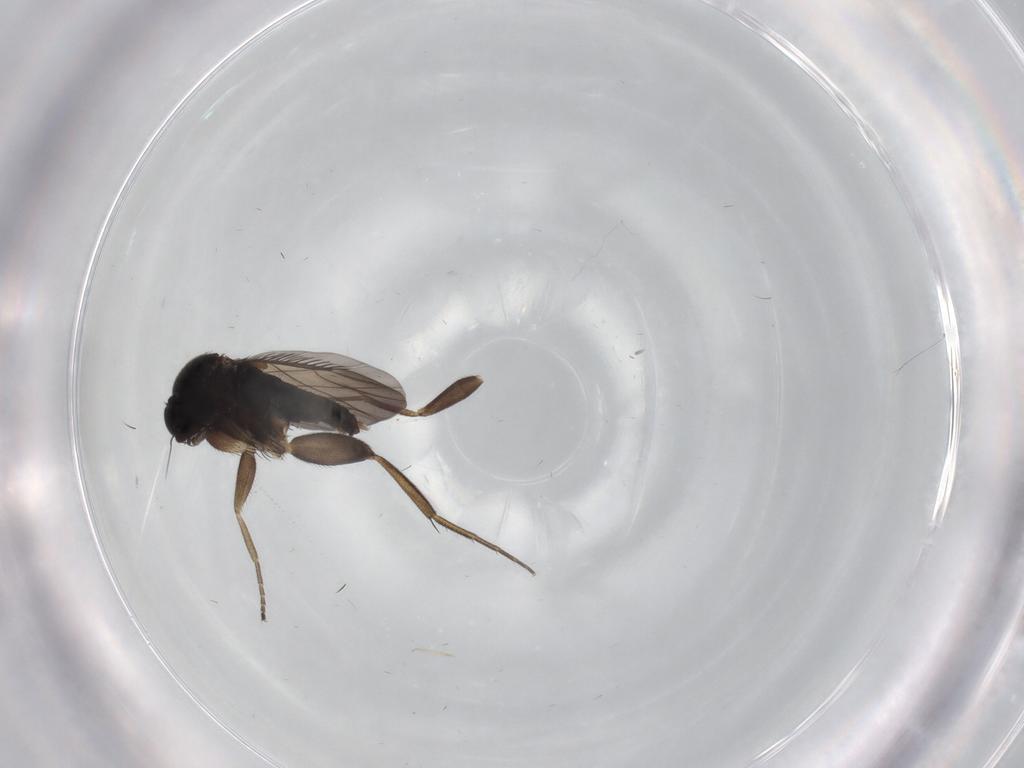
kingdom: Animalia
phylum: Arthropoda
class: Insecta
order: Diptera
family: Phoridae
